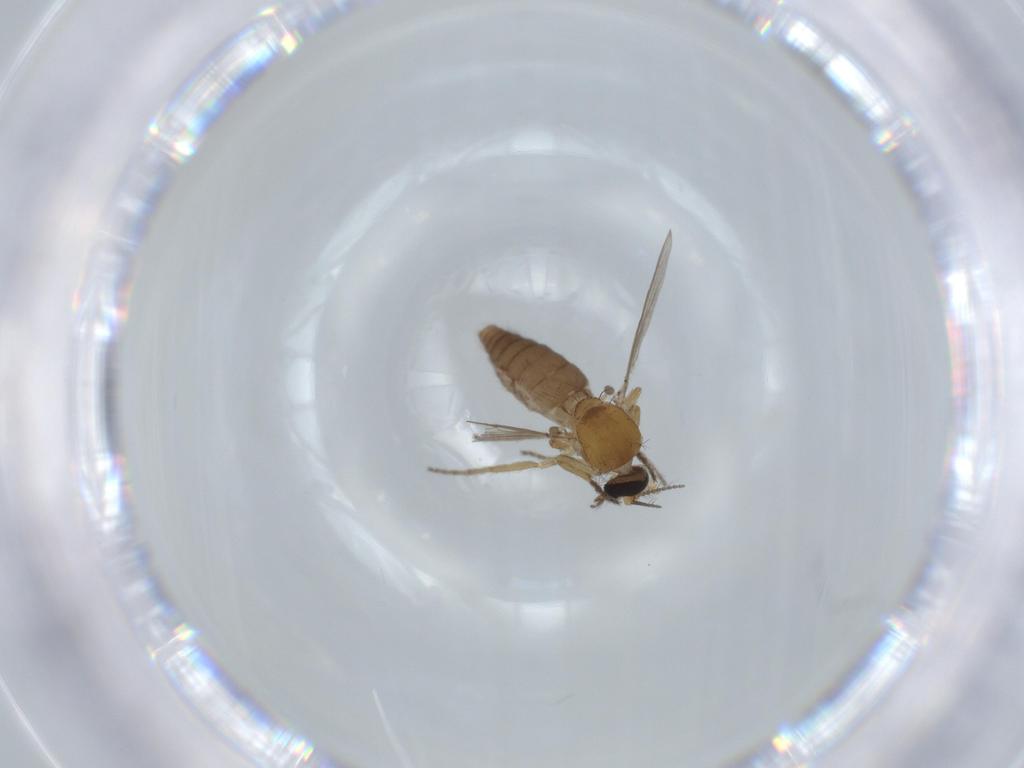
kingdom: Animalia
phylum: Arthropoda
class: Insecta
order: Diptera
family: Ceratopogonidae
